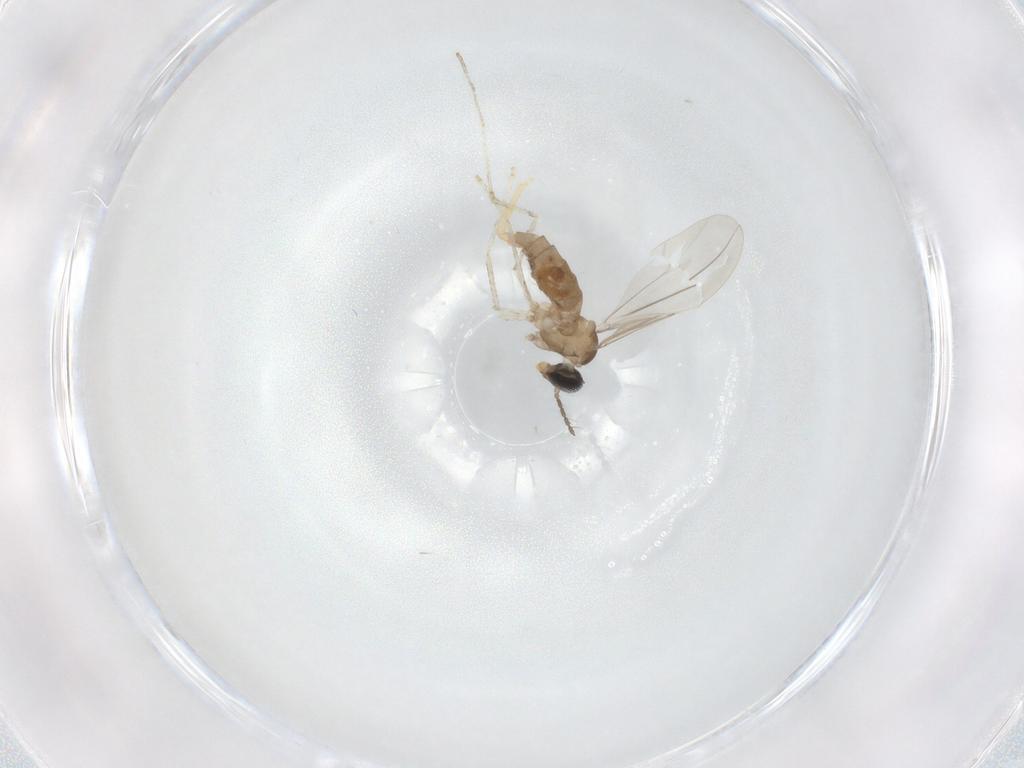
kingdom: Animalia
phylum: Arthropoda
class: Insecta
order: Diptera
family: Cecidomyiidae
